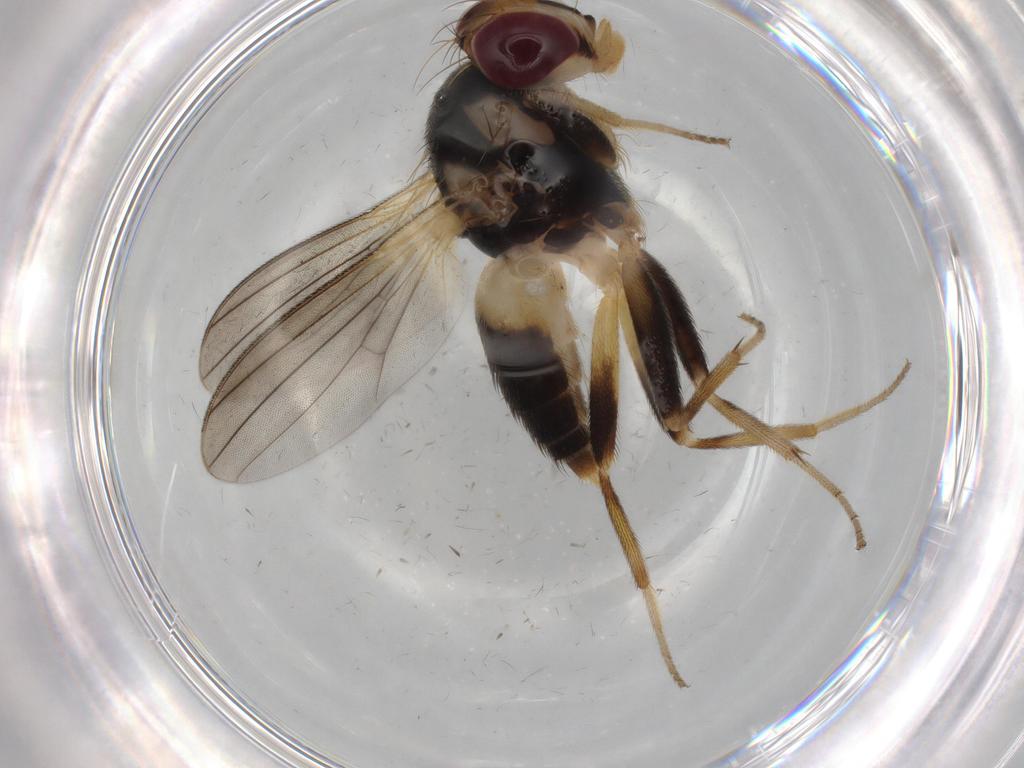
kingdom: Animalia
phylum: Arthropoda
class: Insecta
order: Diptera
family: Clusiidae
